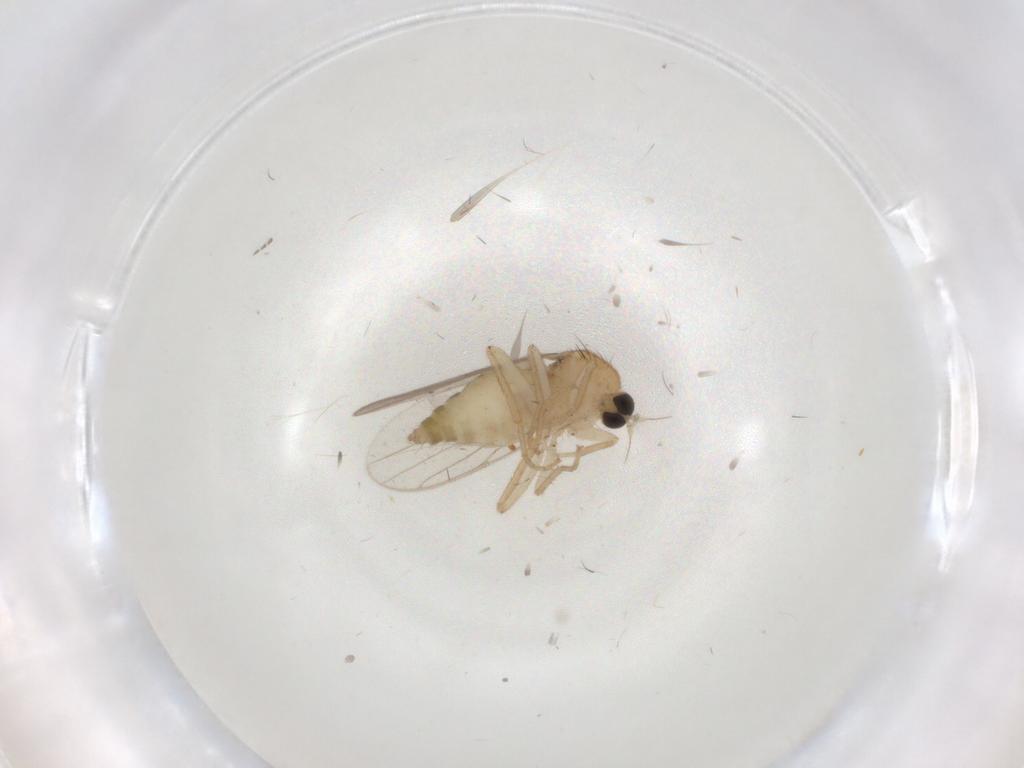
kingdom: Animalia
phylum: Arthropoda
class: Insecta
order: Diptera
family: Hybotidae
